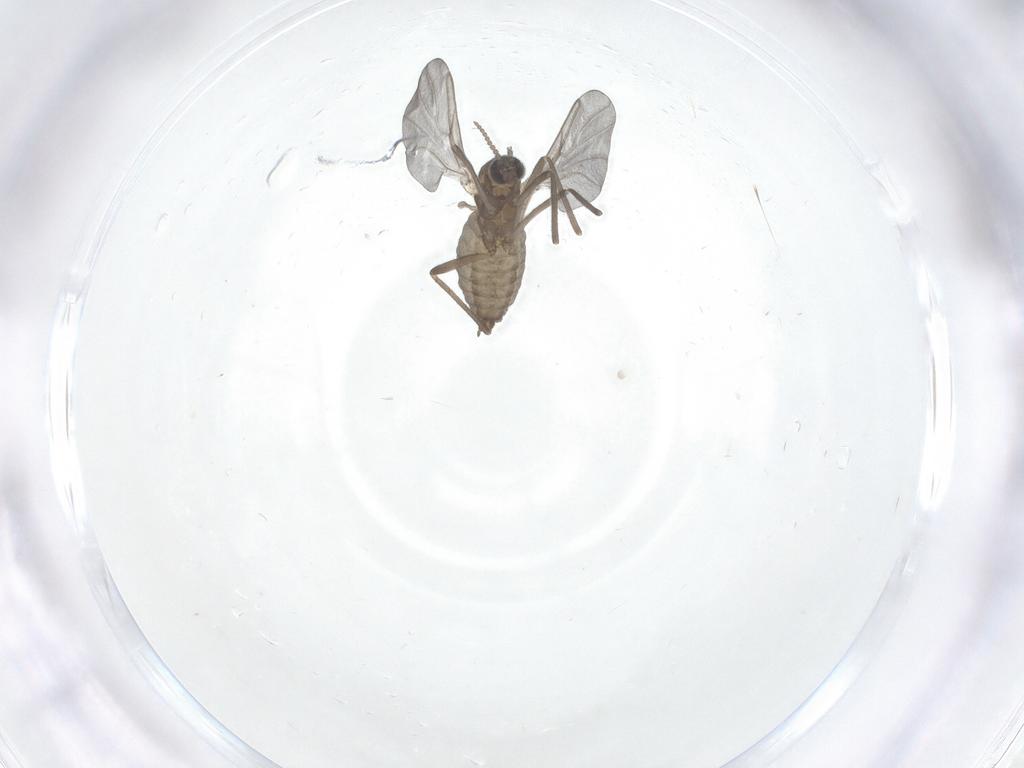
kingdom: Animalia
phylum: Arthropoda
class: Insecta
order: Diptera
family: Cecidomyiidae
